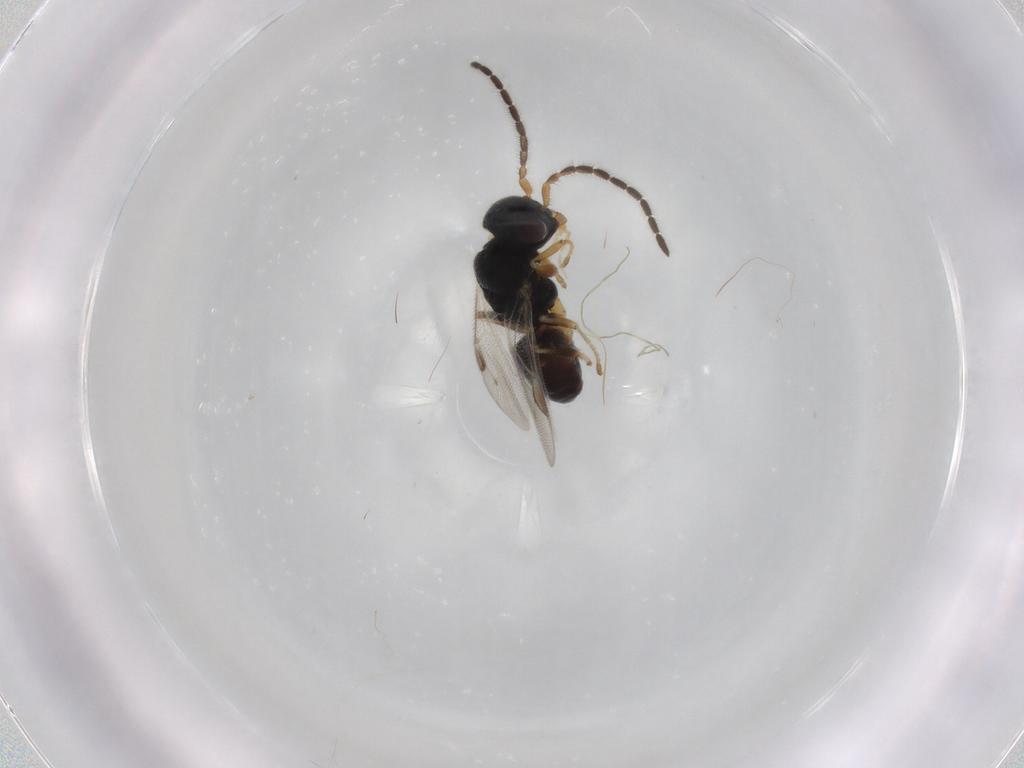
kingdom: Animalia
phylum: Arthropoda
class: Insecta
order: Hymenoptera
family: Dryinidae
